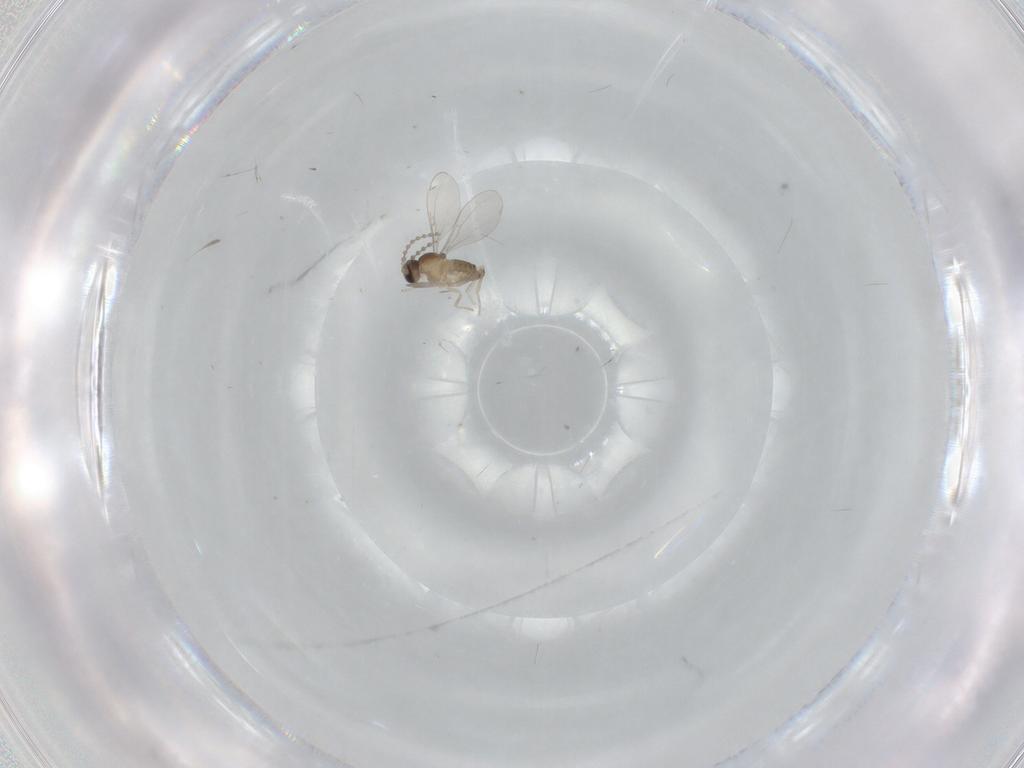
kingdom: Animalia
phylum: Arthropoda
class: Insecta
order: Diptera
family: Cecidomyiidae
